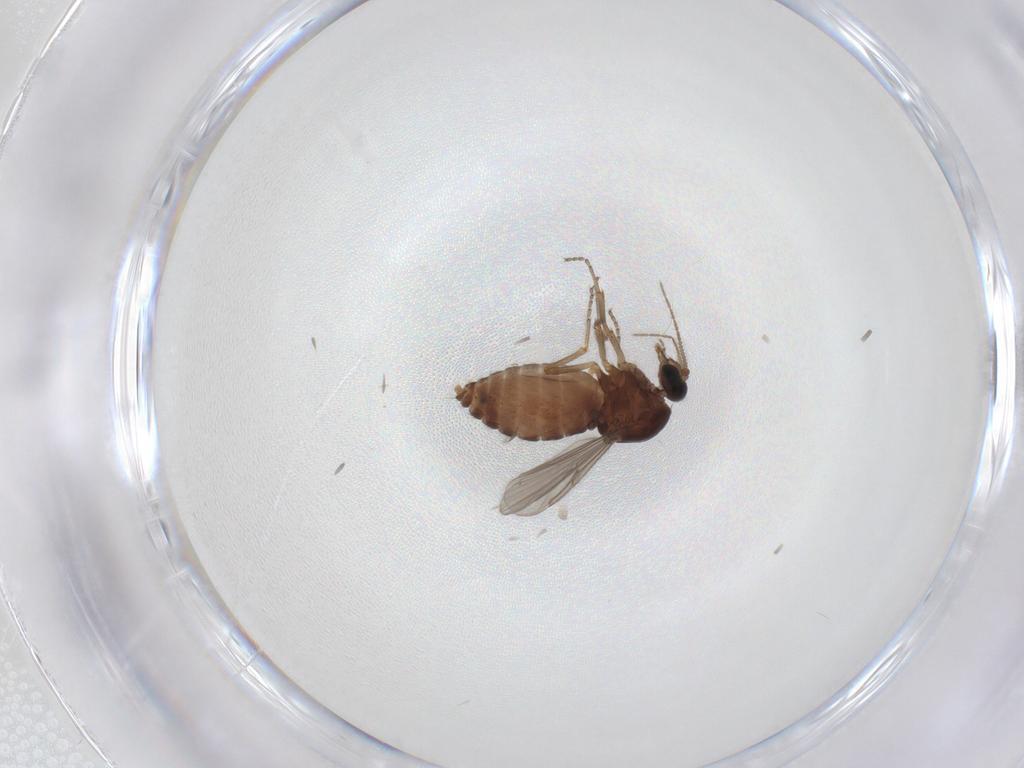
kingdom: Animalia
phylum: Arthropoda
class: Insecta
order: Diptera
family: Ceratopogonidae
